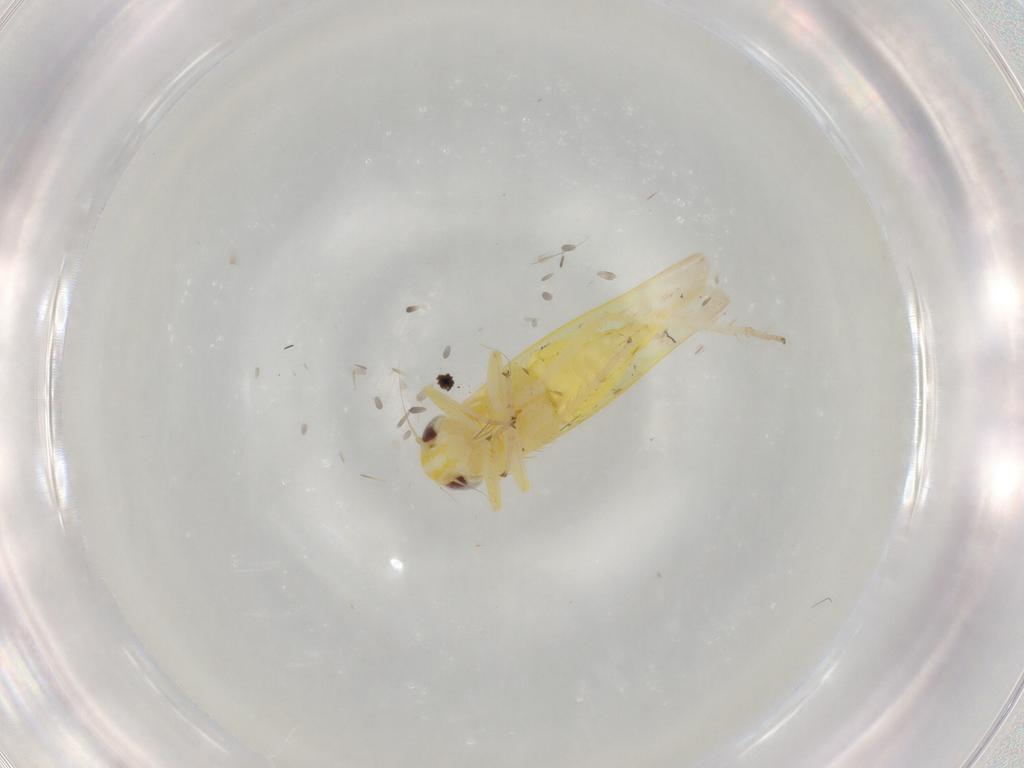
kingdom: Animalia
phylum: Arthropoda
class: Insecta
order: Hemiptera
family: Cicadellidae
